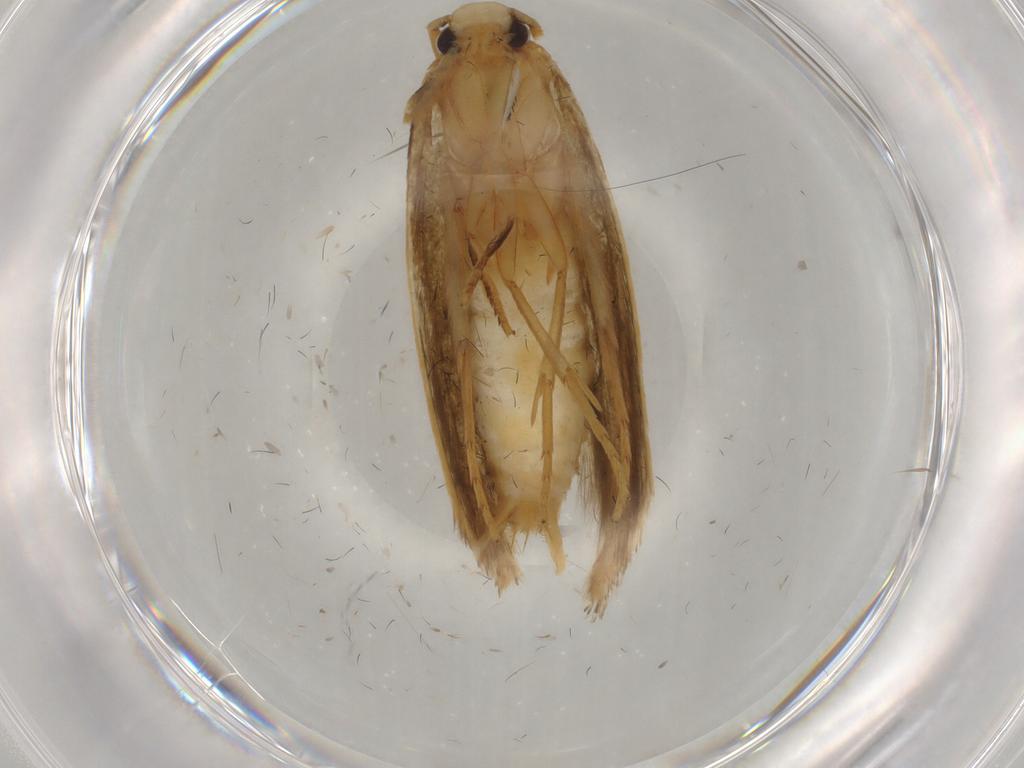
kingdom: Animalia
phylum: Arthropoda
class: Insecta
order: Lepidoptera
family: Tineidae
